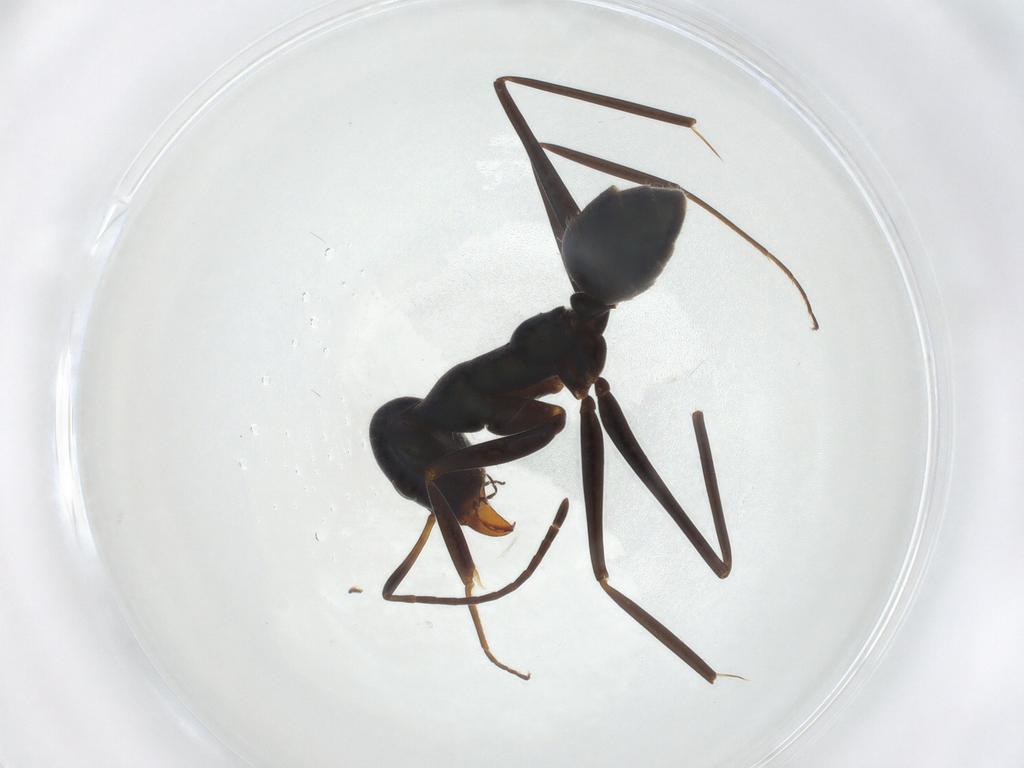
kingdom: Animalia
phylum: Arthropoda
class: Insecta
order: Hymenoptera
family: Formicidae
